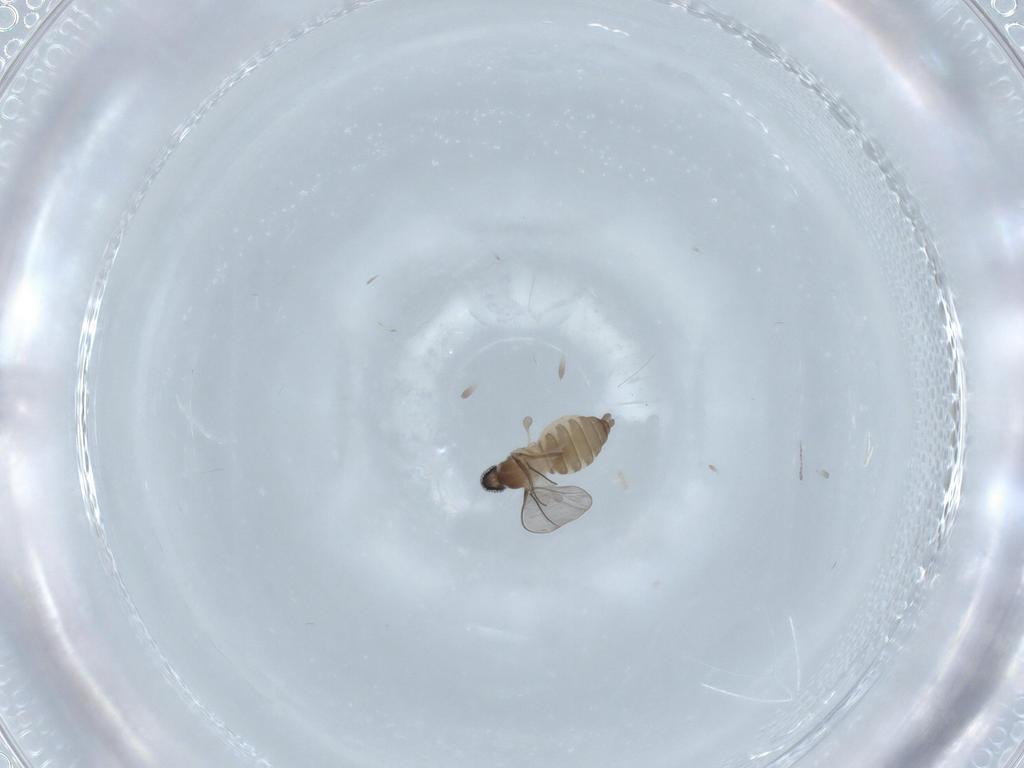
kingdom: Animalia
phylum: Arthropoda
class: Insecta
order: Diptera
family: Cecidomyiidae
